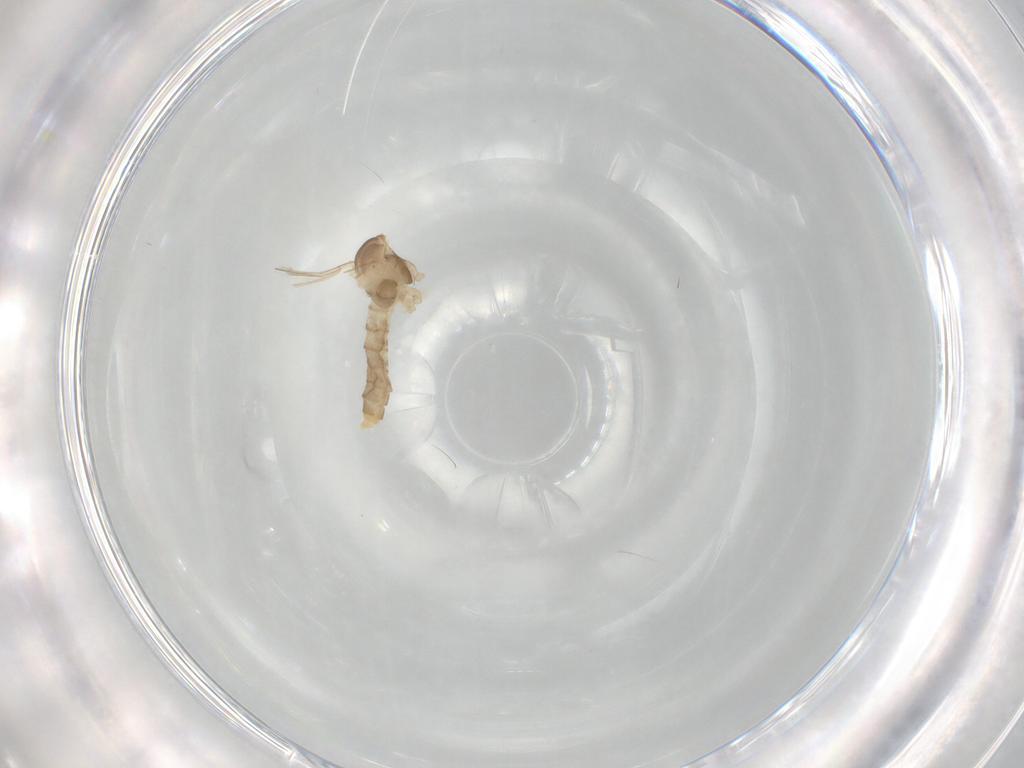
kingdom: Animalia
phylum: Arthropoda
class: Insecta
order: Diptera
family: Cecidomyiidae
